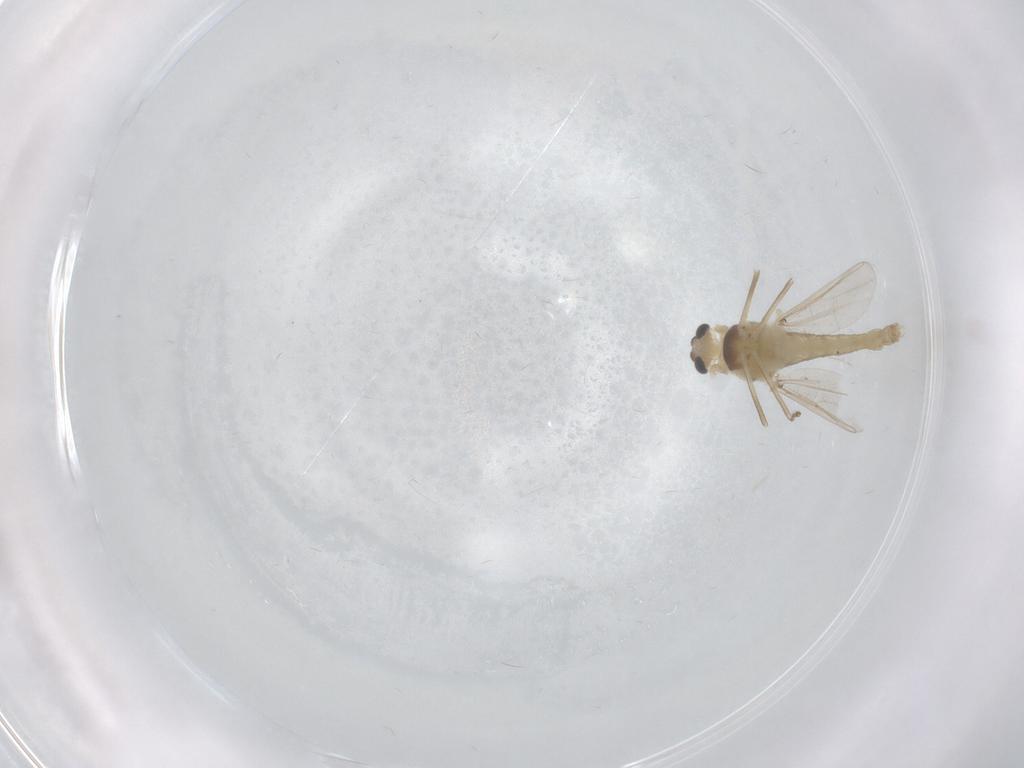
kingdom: Animalia
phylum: Arthropoda
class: Insecta
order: Diptera
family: Chironomidae
